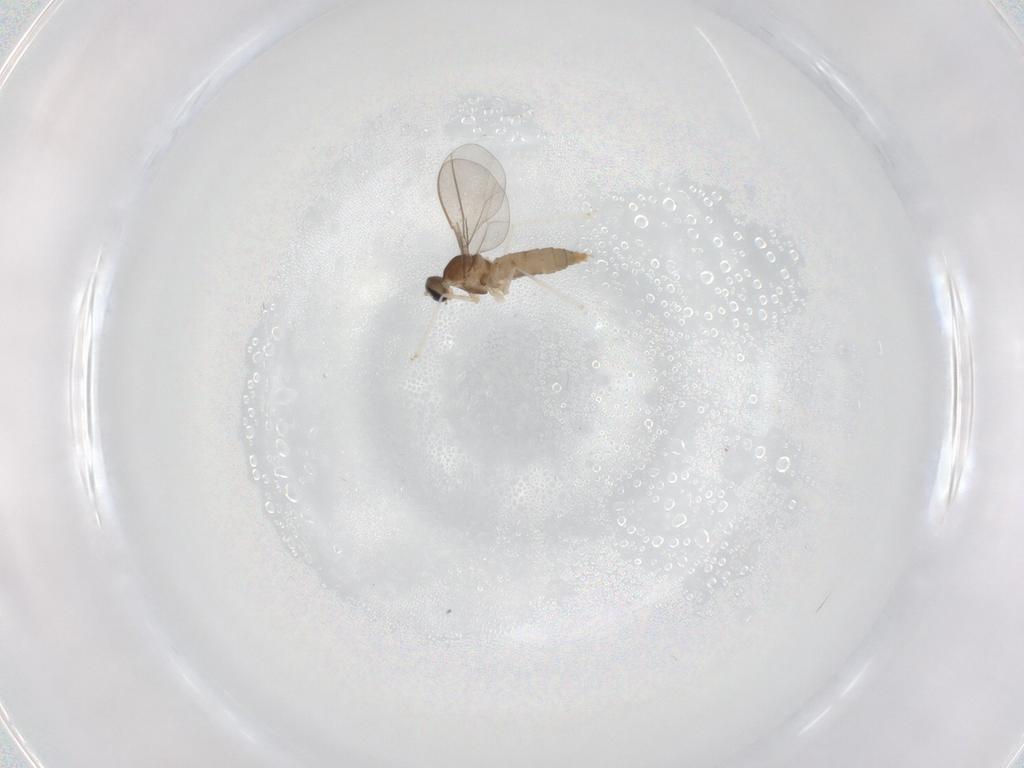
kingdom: Animalia
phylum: Arthropoda
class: Insecta
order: Diptera
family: Cecidomyiidae
